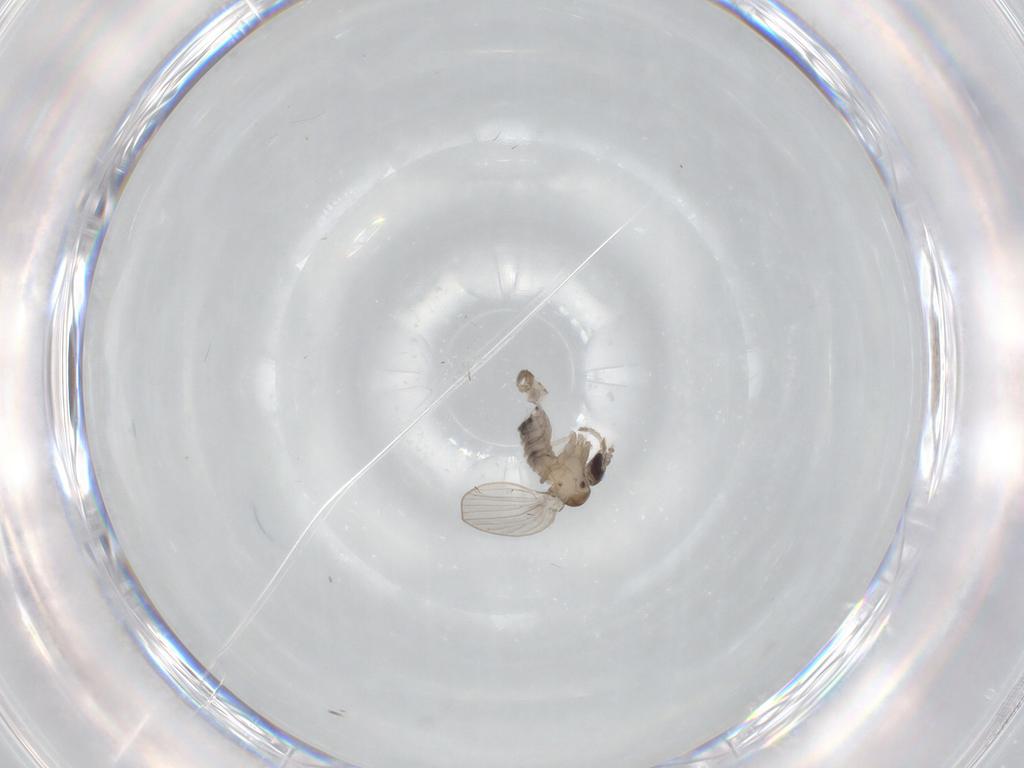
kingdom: Animalia
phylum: Arthropoda
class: Insecta
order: Diptera
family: Psychodidae
